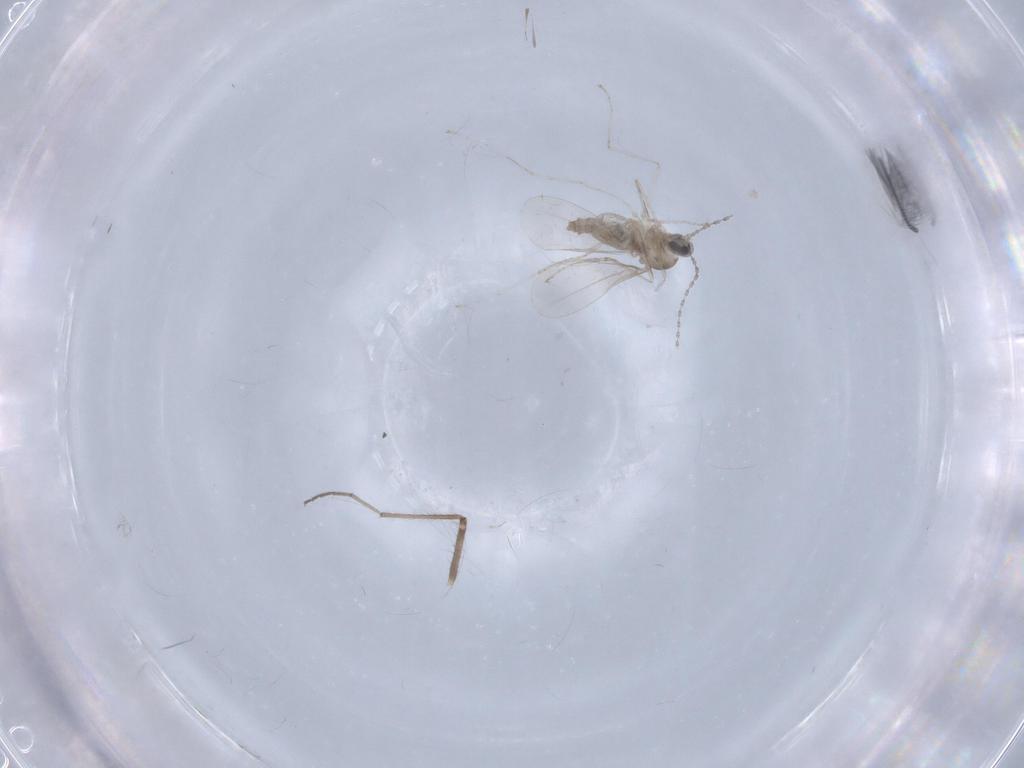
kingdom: Animalia
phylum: Arthropoda
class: Insecta
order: Diptera
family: Cecidomyiidae
